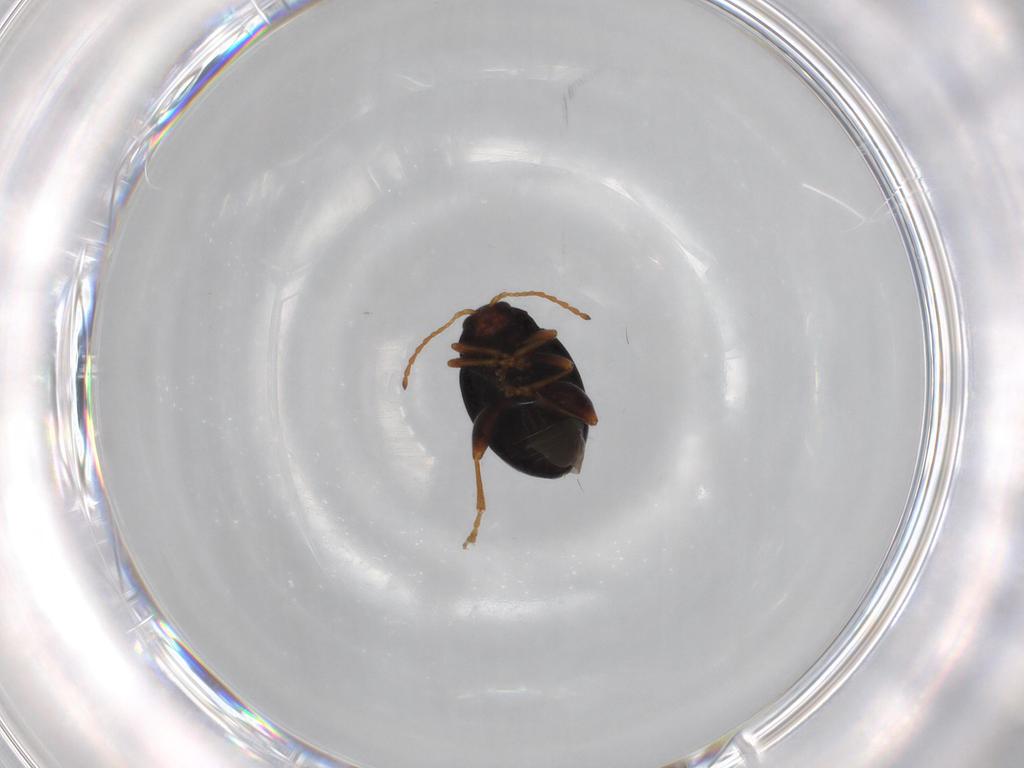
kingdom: Animalia
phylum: Arthropoda
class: Insecta
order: Coleoptera
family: Chrysomelidae
